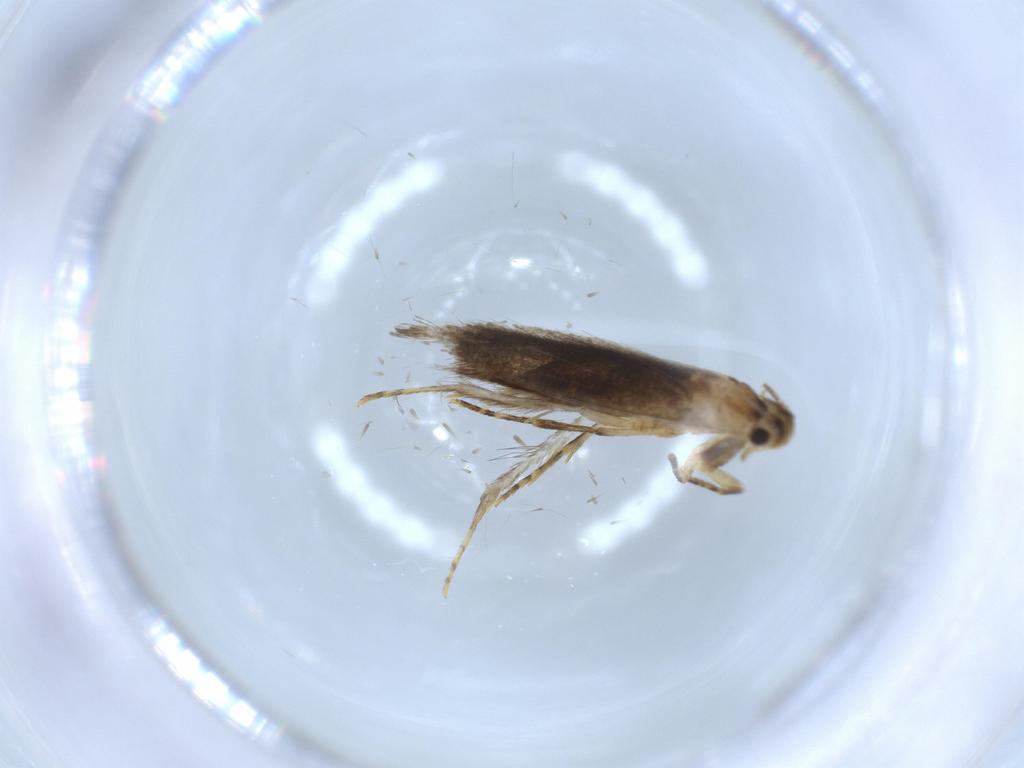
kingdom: Animalia
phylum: Arthropoda
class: Insecta
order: Lepidoptera
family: Tineidae
